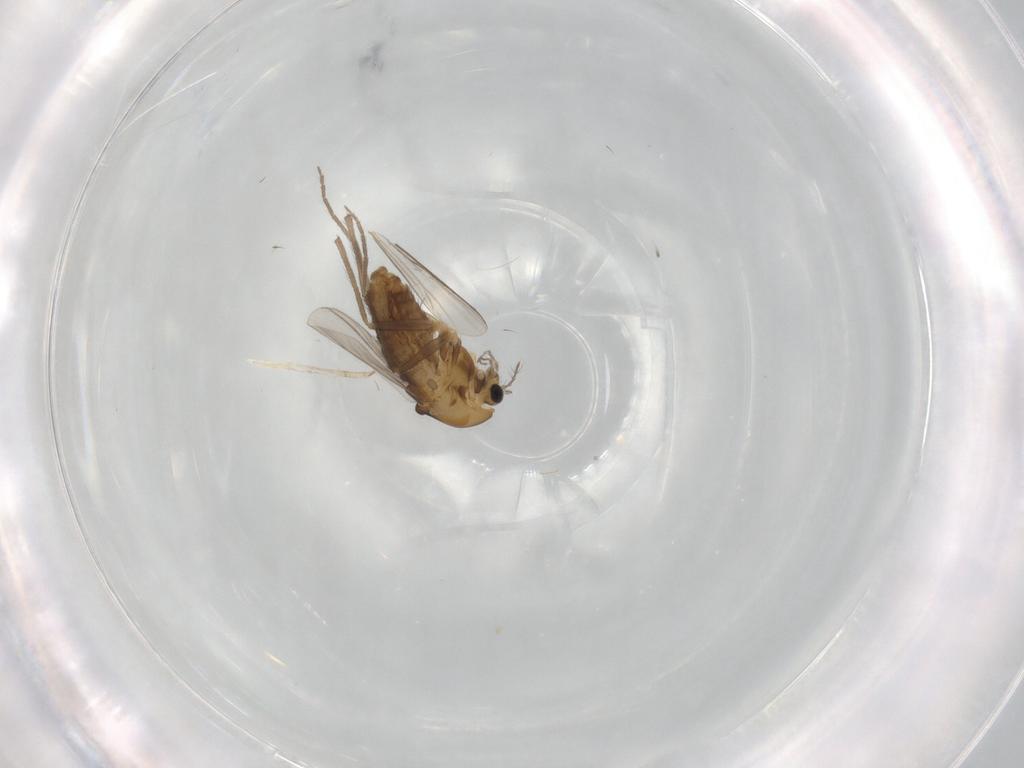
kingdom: Animalia
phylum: Arthropoda
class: Insecta
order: Diptera
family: Chironomidae
